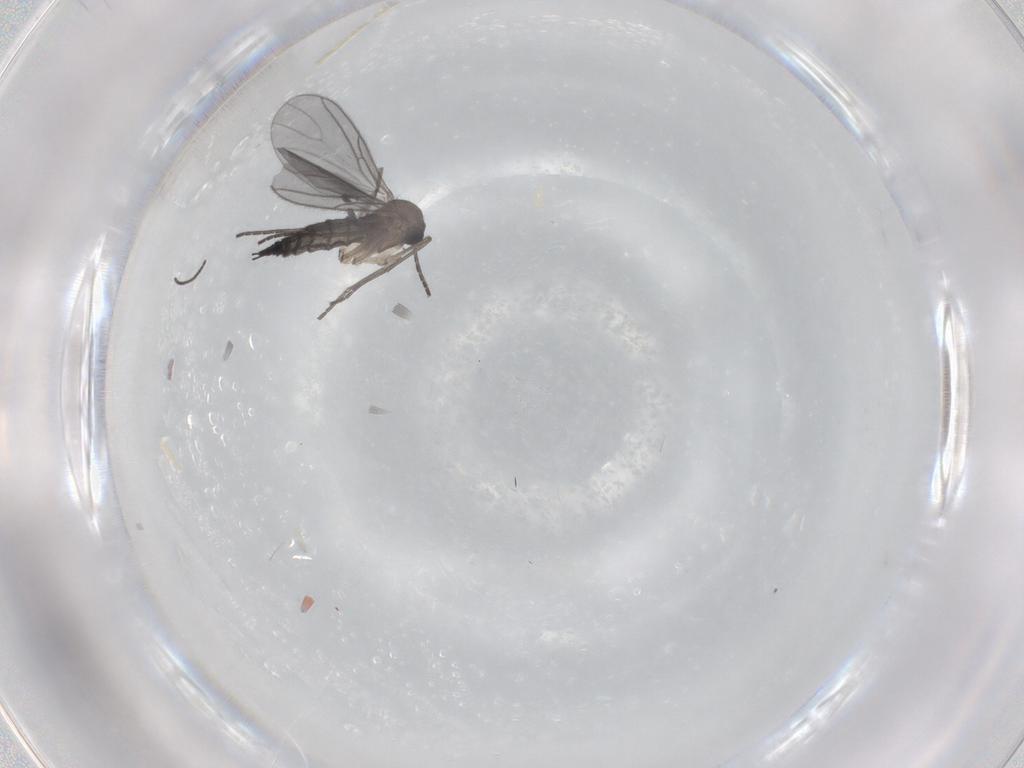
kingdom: Animalia
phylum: Arthropoda
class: Insecta
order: Diptera
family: Sciaridae
